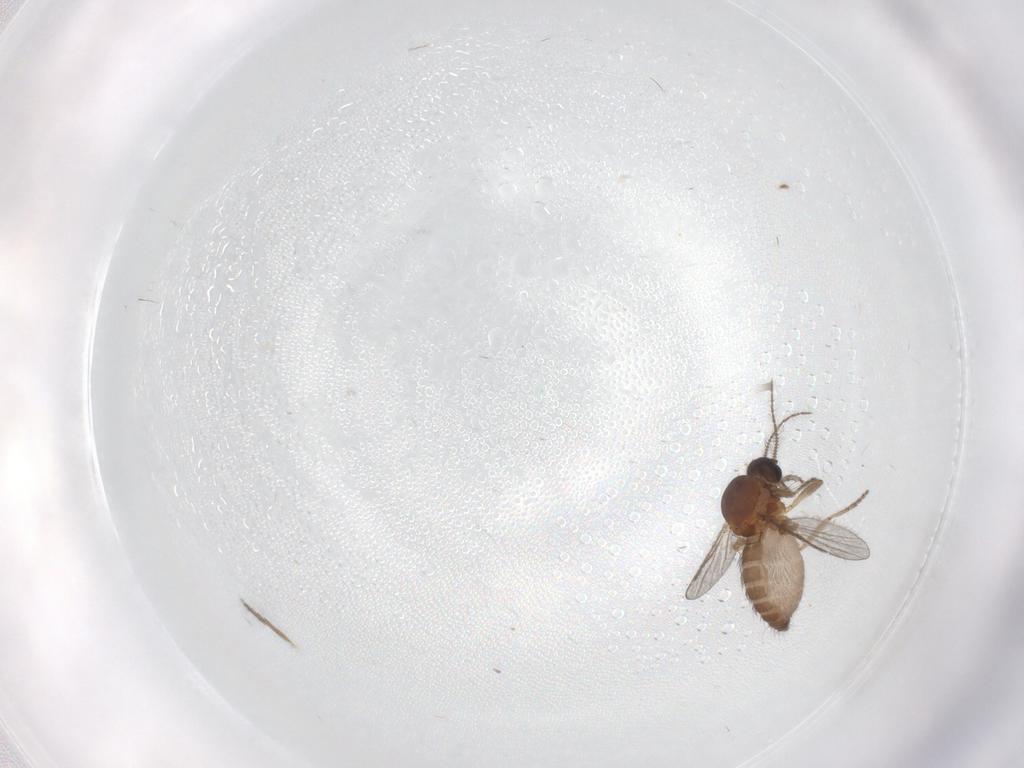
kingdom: Animalia
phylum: Arthropoda
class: Insecta
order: Diptera
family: Ceratopogonidae
